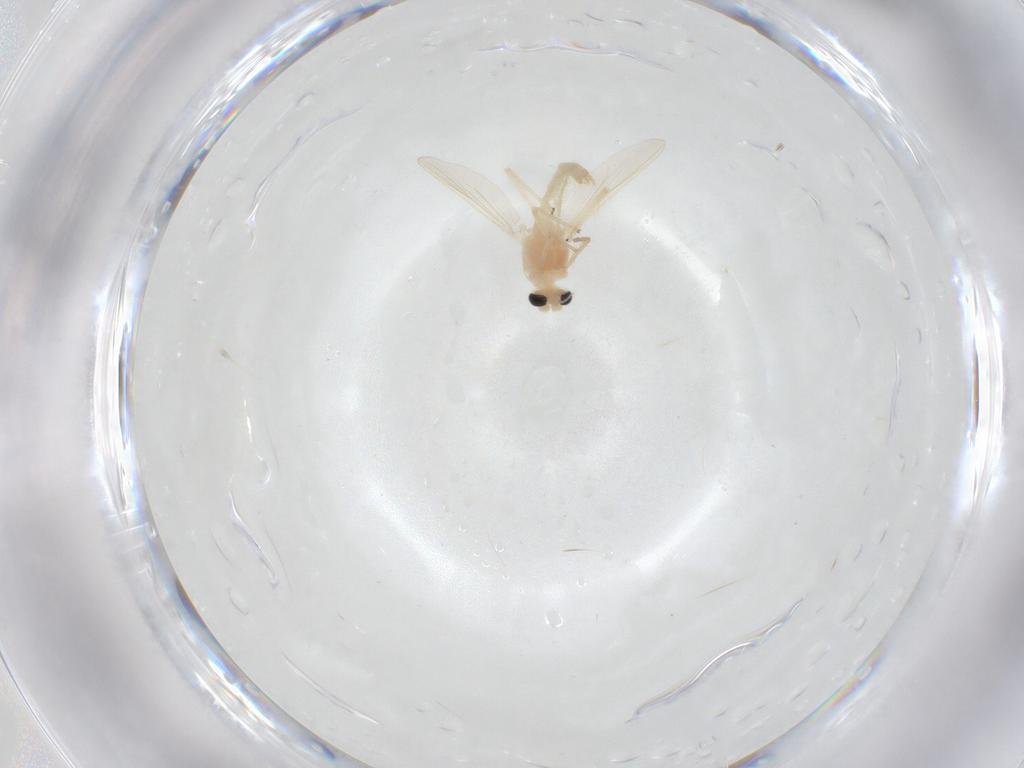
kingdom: Animalia
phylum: Arthropoda
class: Insecta
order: Diptera
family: Chironomidae
